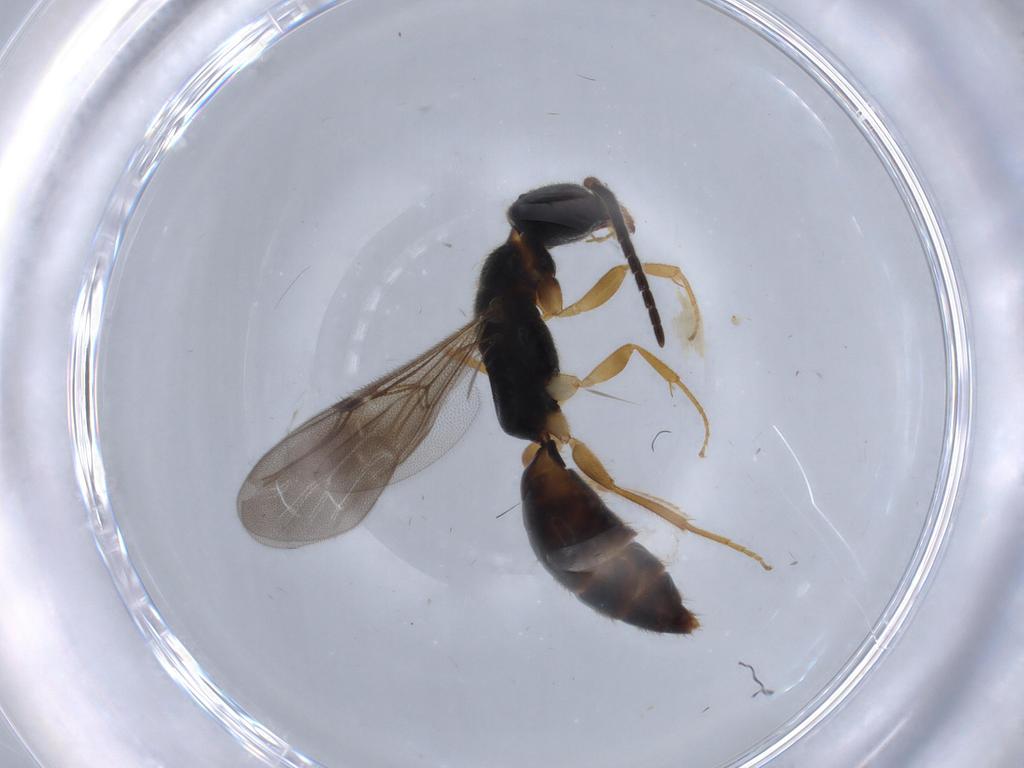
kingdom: Animalia
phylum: Arthropoda
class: Insecta
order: Hymenoptera
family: Bethylidae
